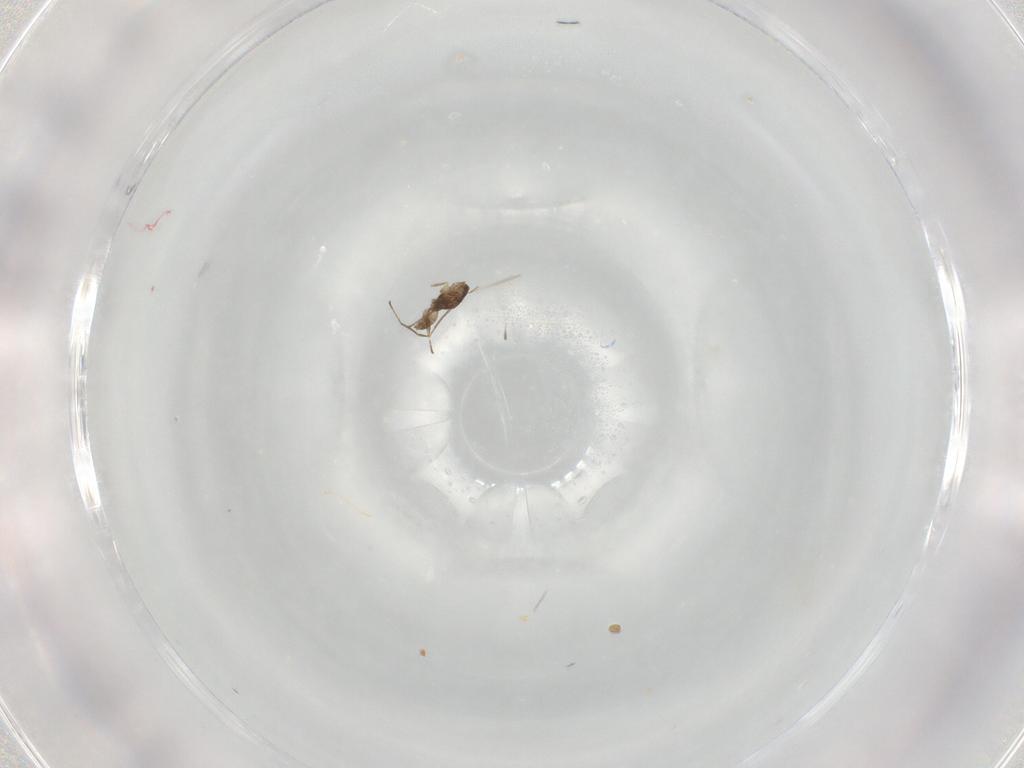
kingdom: Animalia
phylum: Arthropoda
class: Insecta
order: Hymenoptera
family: Mymaridae
